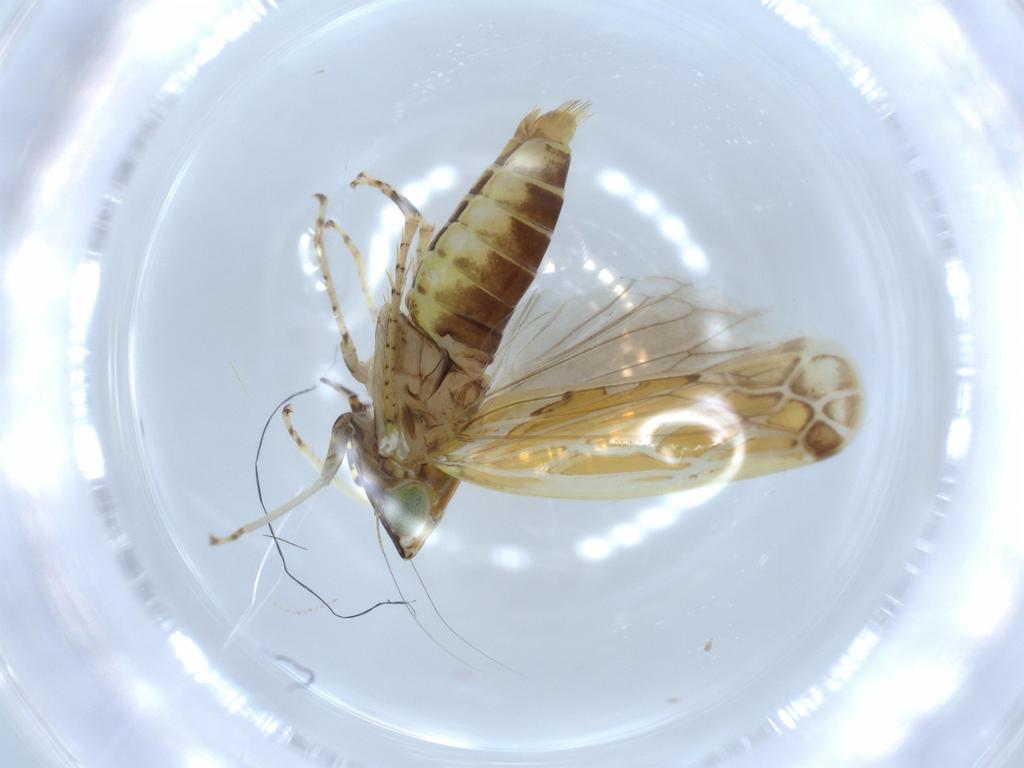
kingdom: Animalia
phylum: Arthropoda
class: Insecta
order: Hemiptera
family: Cicadellidae
